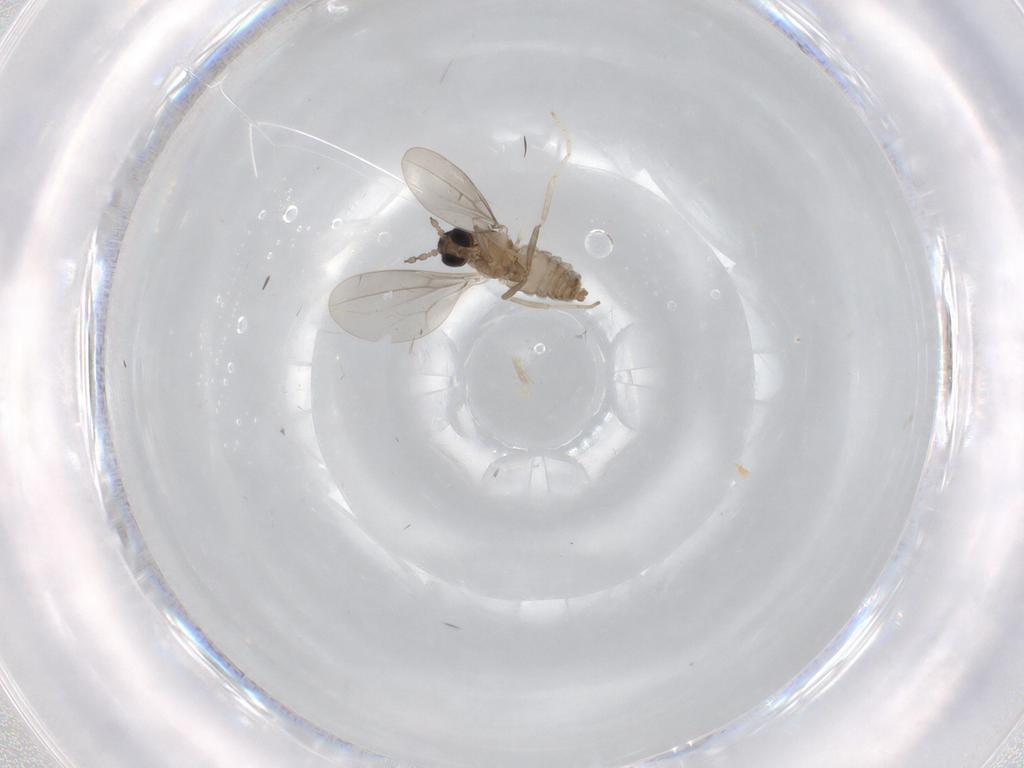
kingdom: Animalia
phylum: Arthropoda
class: Insecta
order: Diptera
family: Cecidomyiidae
